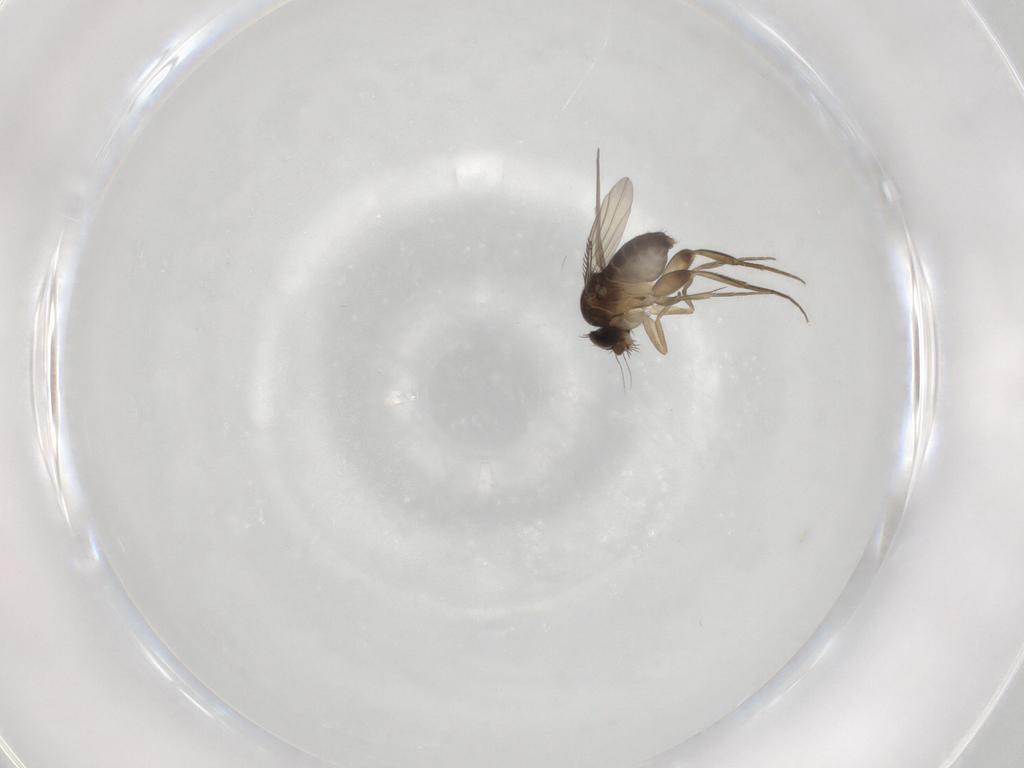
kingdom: Animalia
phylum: Arthropoda
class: Insecta
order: Diptera
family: Phoridae
